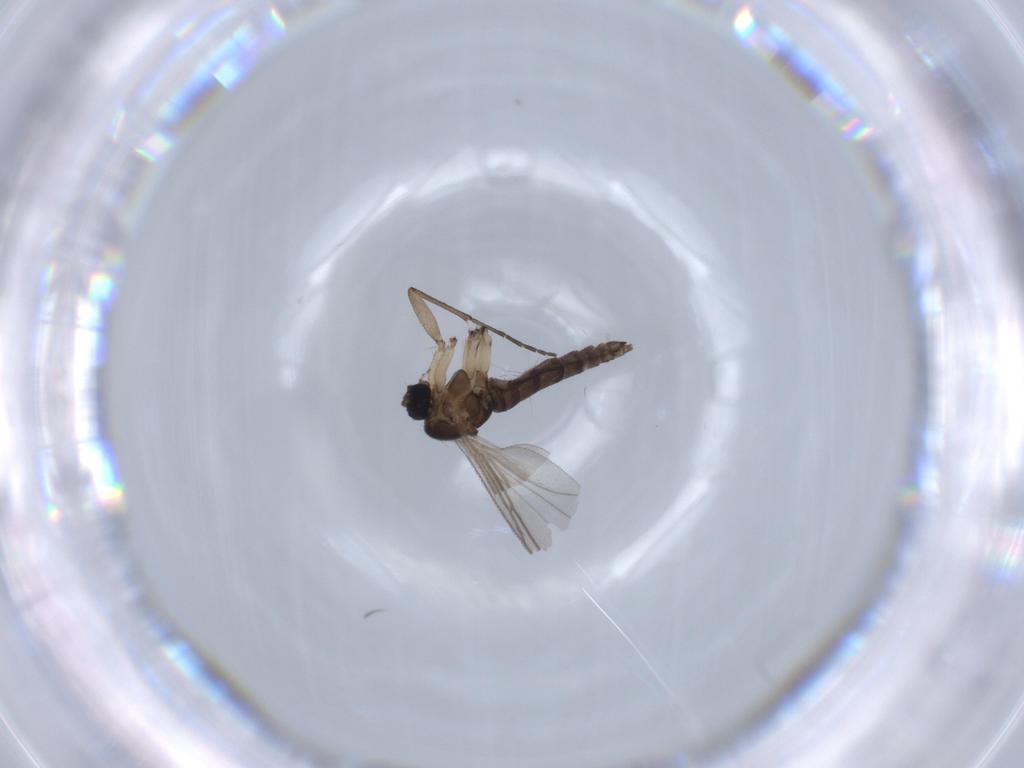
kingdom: Animalia
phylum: Arthropoda
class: Insecta
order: Diptera
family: Sciaridae
